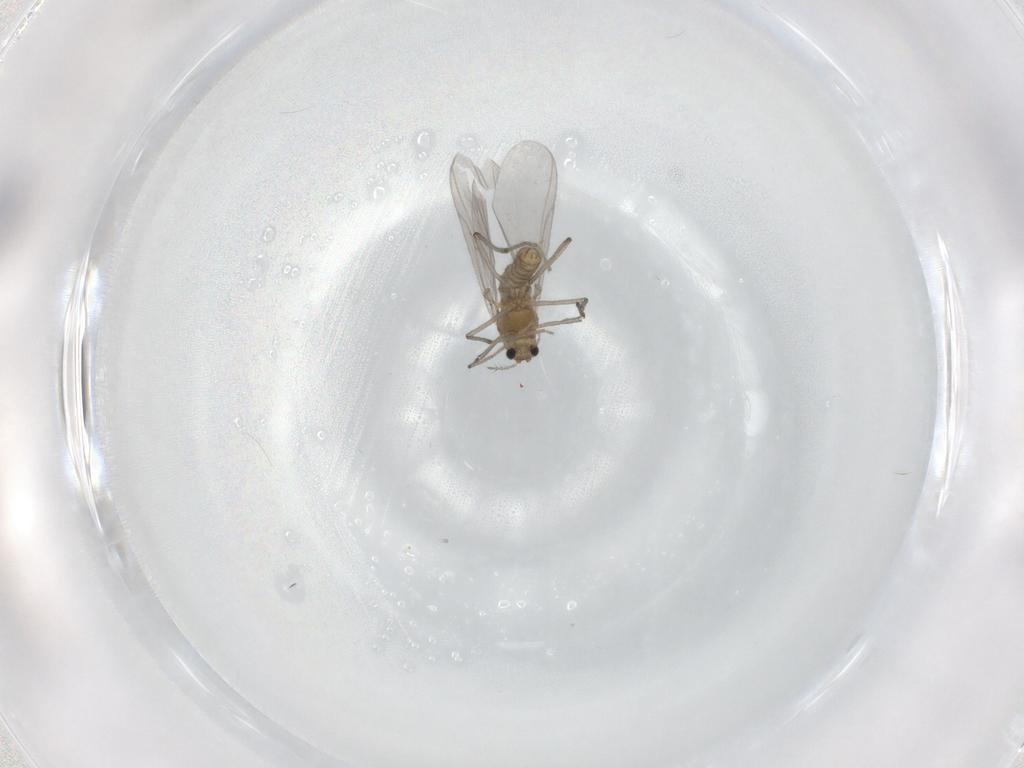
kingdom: Animalia
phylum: Arthropoda
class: Insecta
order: Diptera
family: Chironomidae
